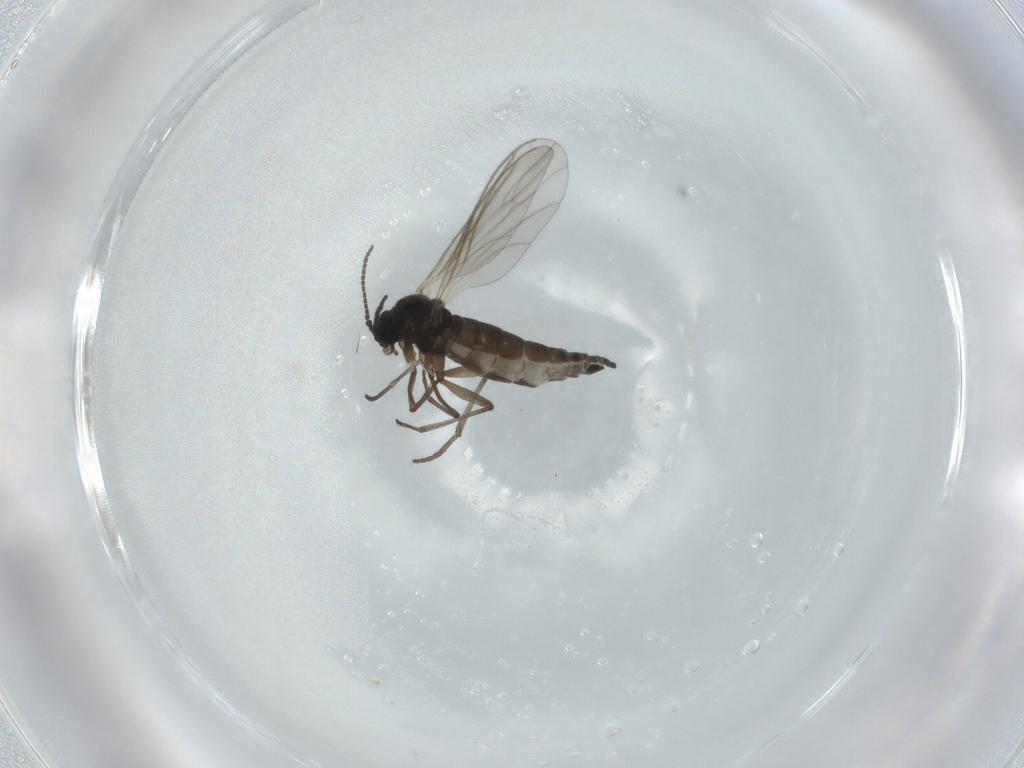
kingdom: Animalia
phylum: Arthropoda
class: Insecta
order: Diptera
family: Sciaridae
